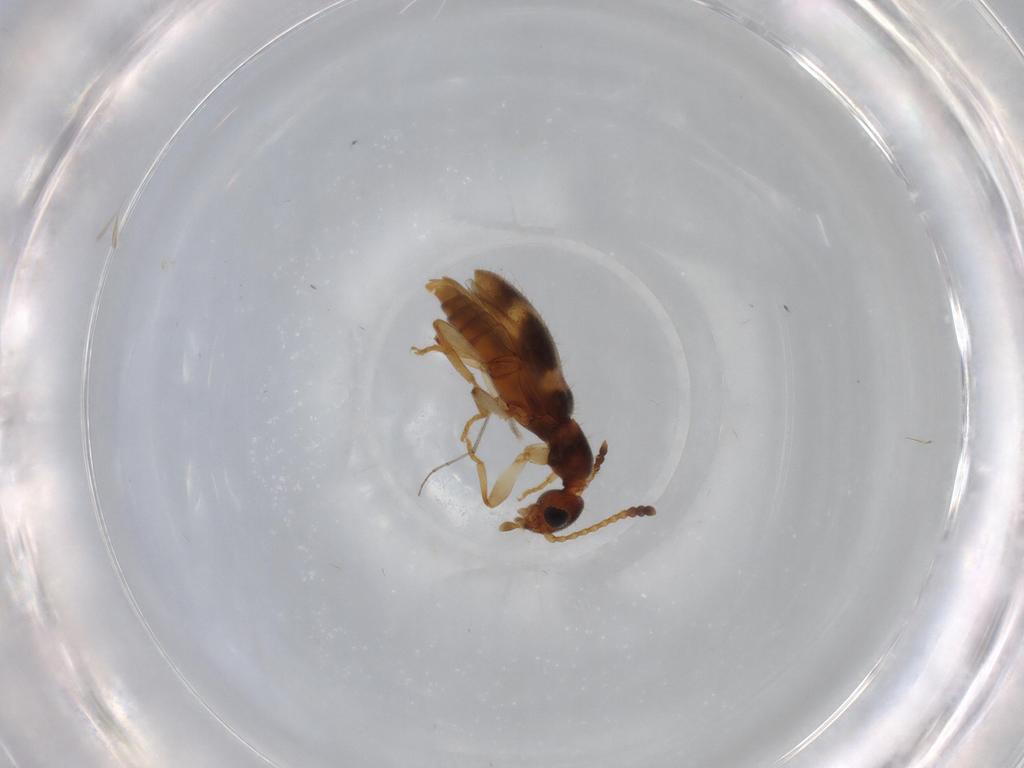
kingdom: Animalia
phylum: Arthropoda
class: Insecta
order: Coleoptera
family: Anthicidae
